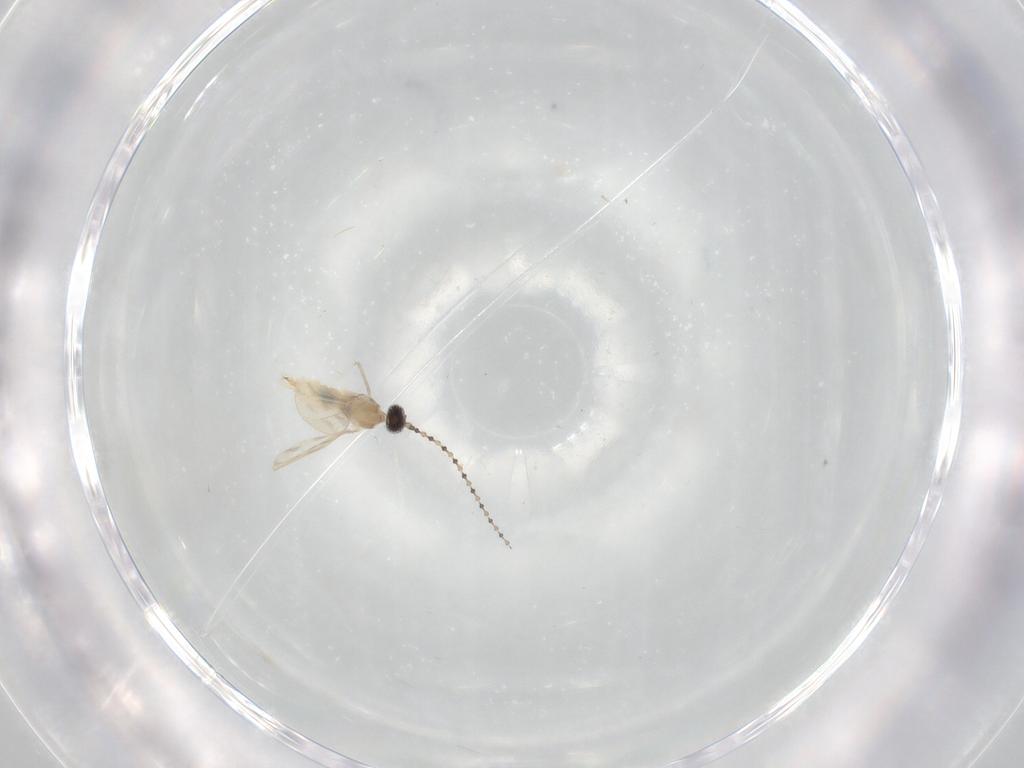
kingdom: Animalia
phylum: Arthropoda
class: Insecta
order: Diptera
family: Cecidomyiidae
